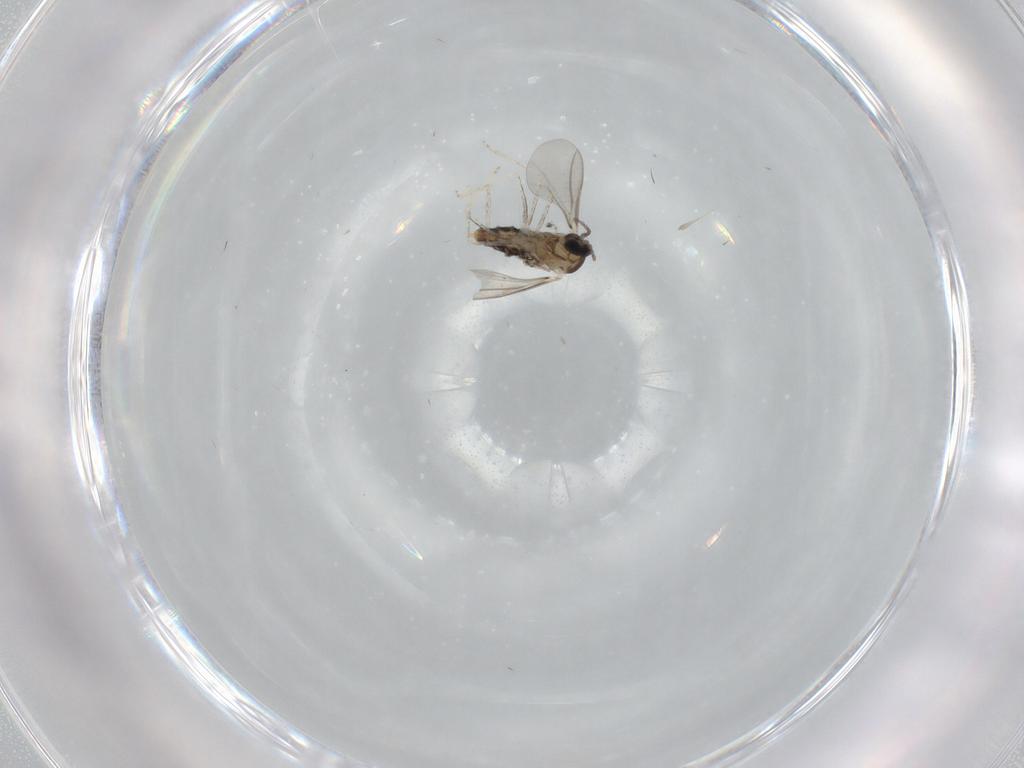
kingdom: Animalia
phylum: Arthropoda
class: Insecta
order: Diptera
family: Cecidomyiidae
